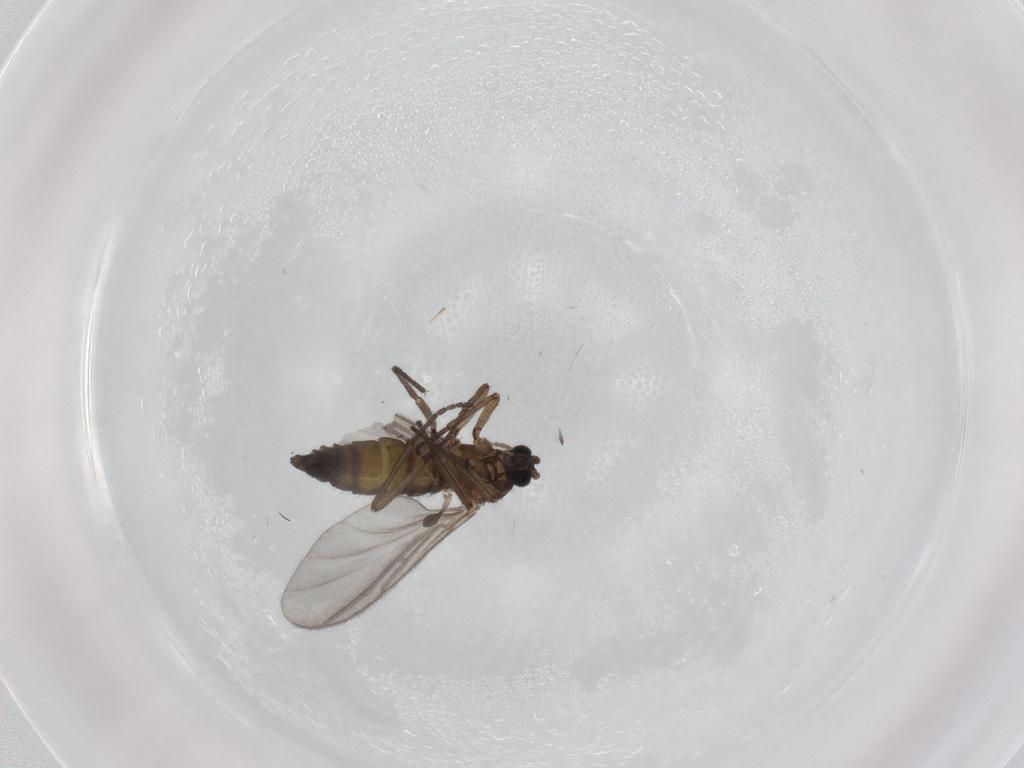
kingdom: Animalia
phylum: Arthropoda
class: Insecta
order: Diptera
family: Sciaridae
